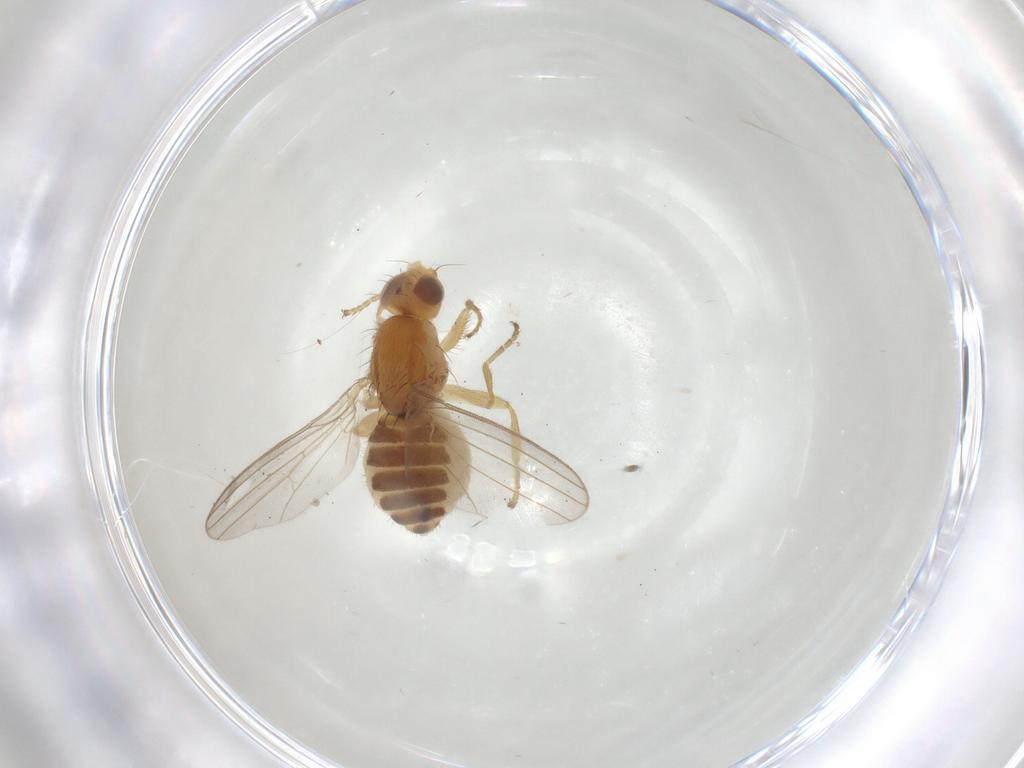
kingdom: Animalia
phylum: Arthropoda
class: Insecta
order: Diptera
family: Chyromyidae
